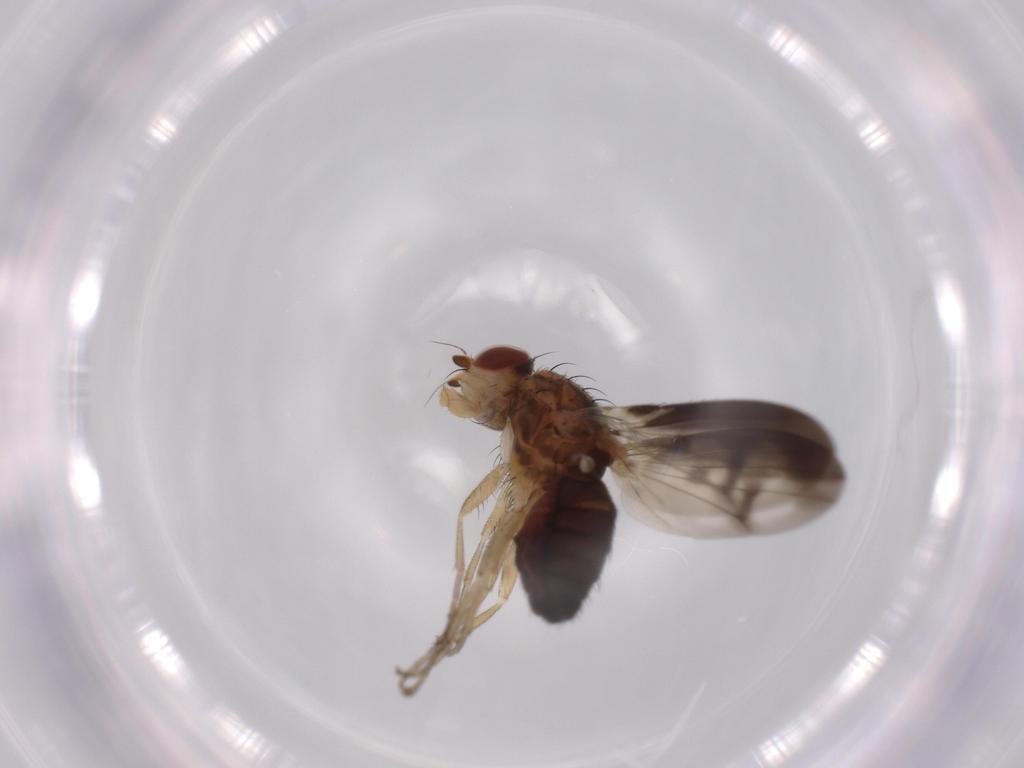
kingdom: Animalia
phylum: Arthropoda
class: Insecta
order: Diptera
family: Heleomyzidae
